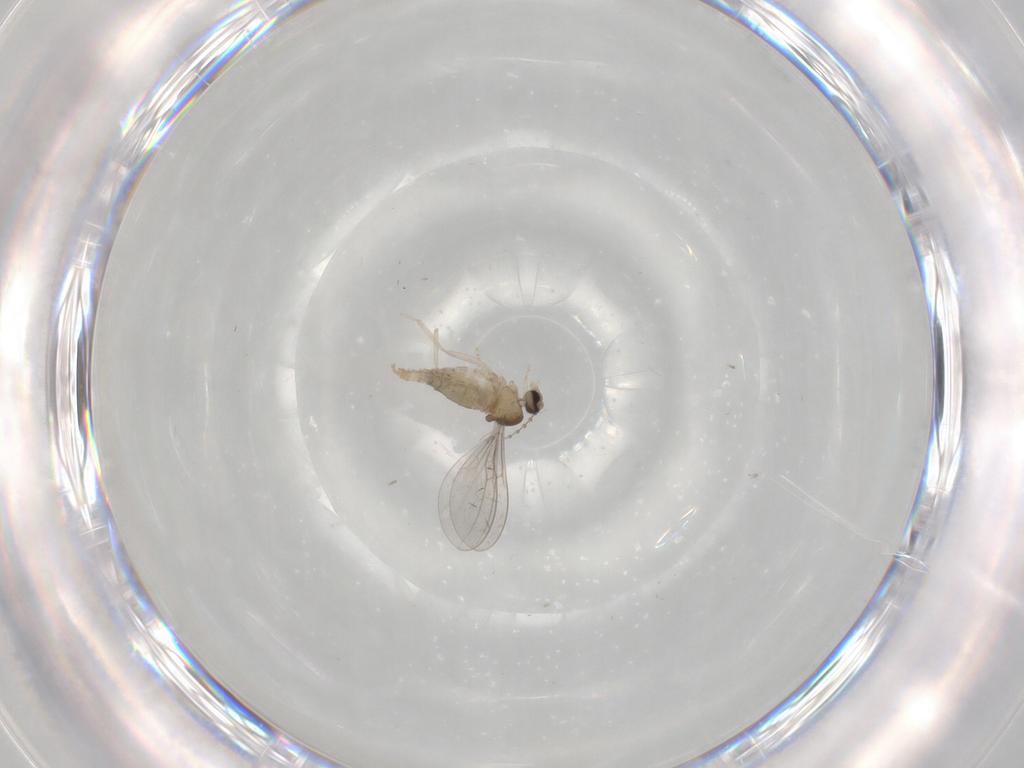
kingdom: Animalia
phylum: Arthropoda
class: Insecta
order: Diptera
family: Cecidomyiidae
